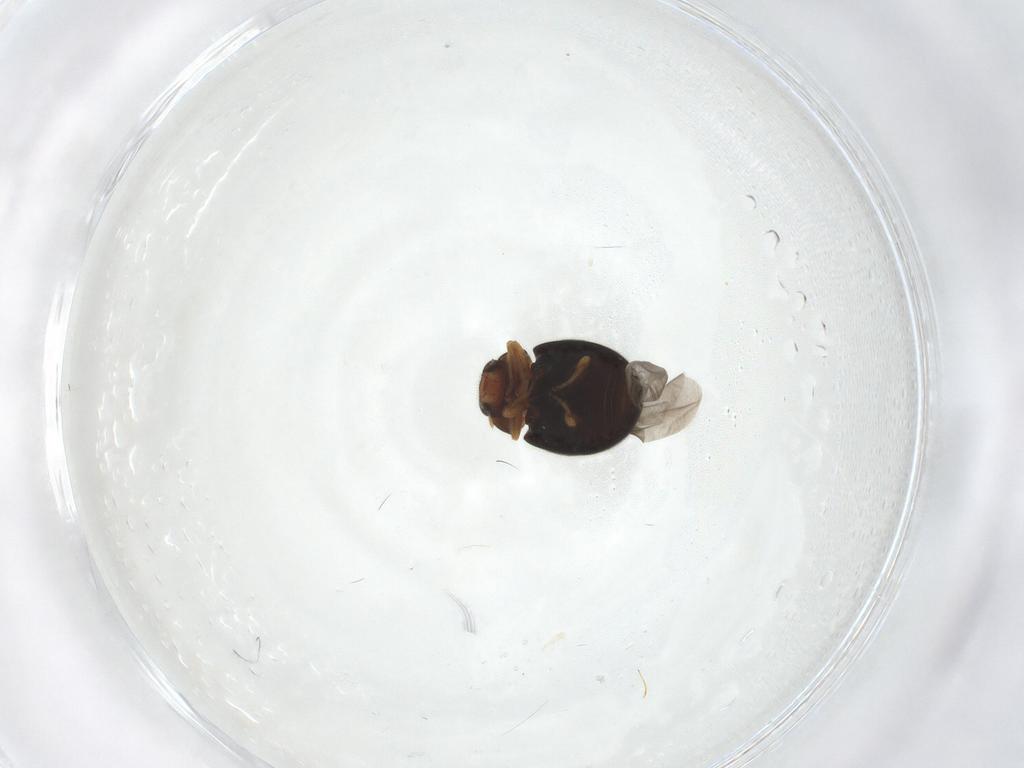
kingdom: Animalia
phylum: Arthropoda
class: Insecta
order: Coleoptera
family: Coccinellidae
